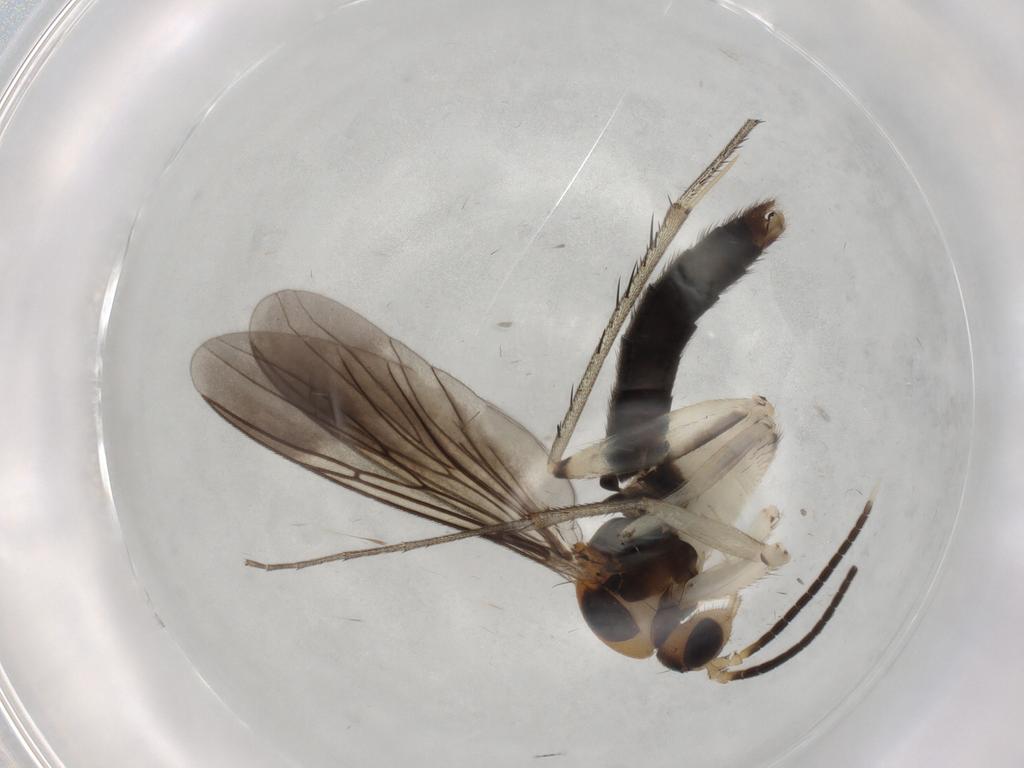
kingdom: Animalia
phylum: Arthropoda
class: Insecta
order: Diptera
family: Mycetophilidae
